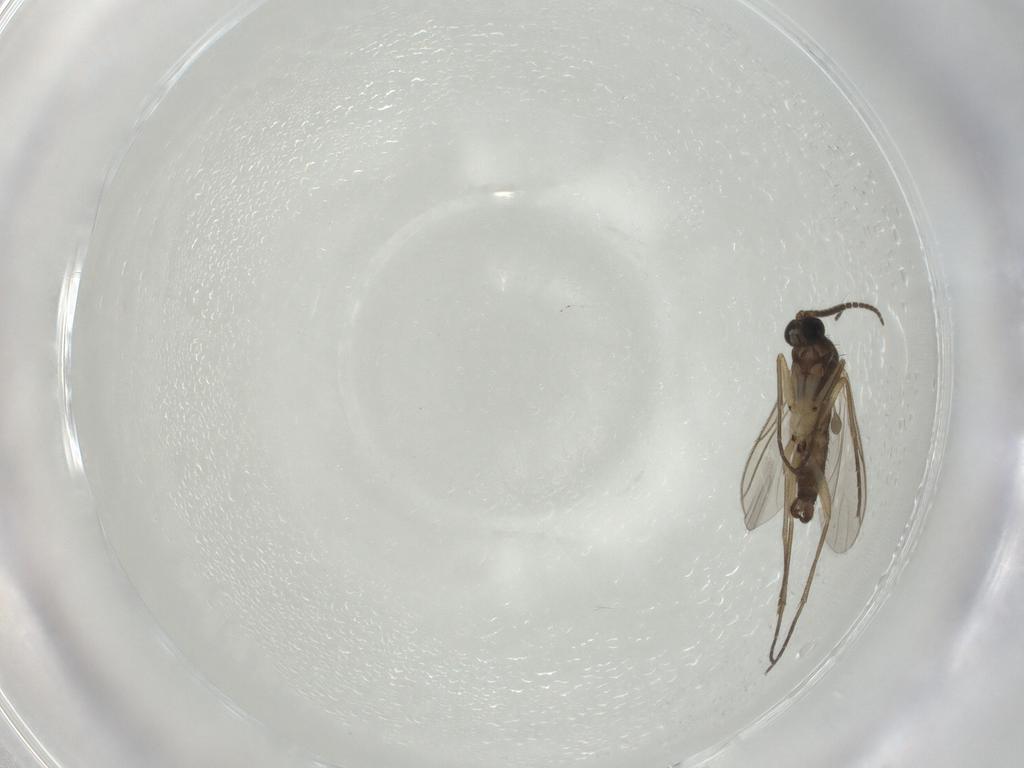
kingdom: Animalia
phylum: Arthropoda
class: Insecta
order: Diptera
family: Sciaridae
